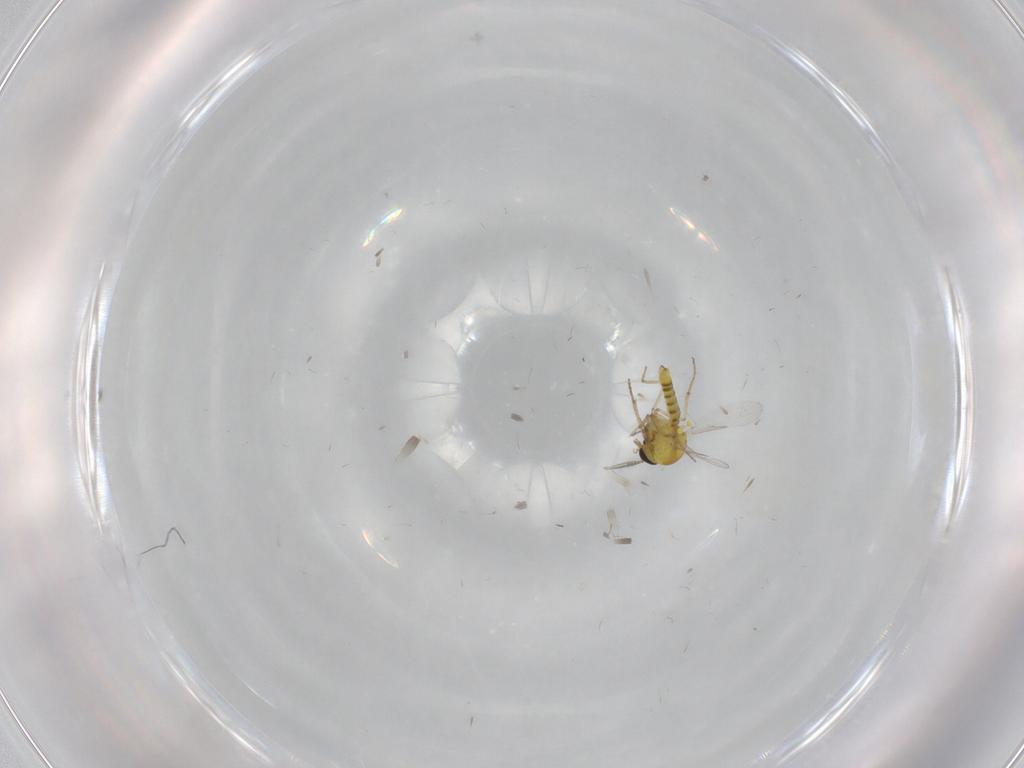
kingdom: Animalia
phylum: Arthropoda
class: Insecta
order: Diptera
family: Ceratopogonidae
